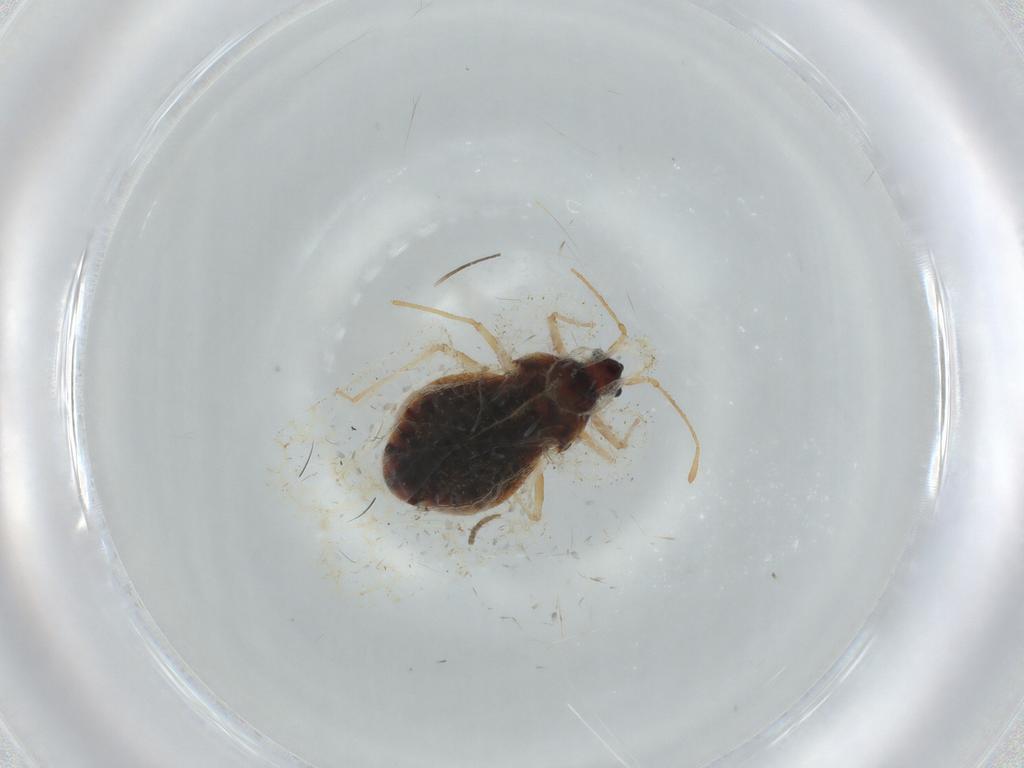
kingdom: Animalia
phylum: Arthropoda
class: Insecta
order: Hemiptera
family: Aphididae
